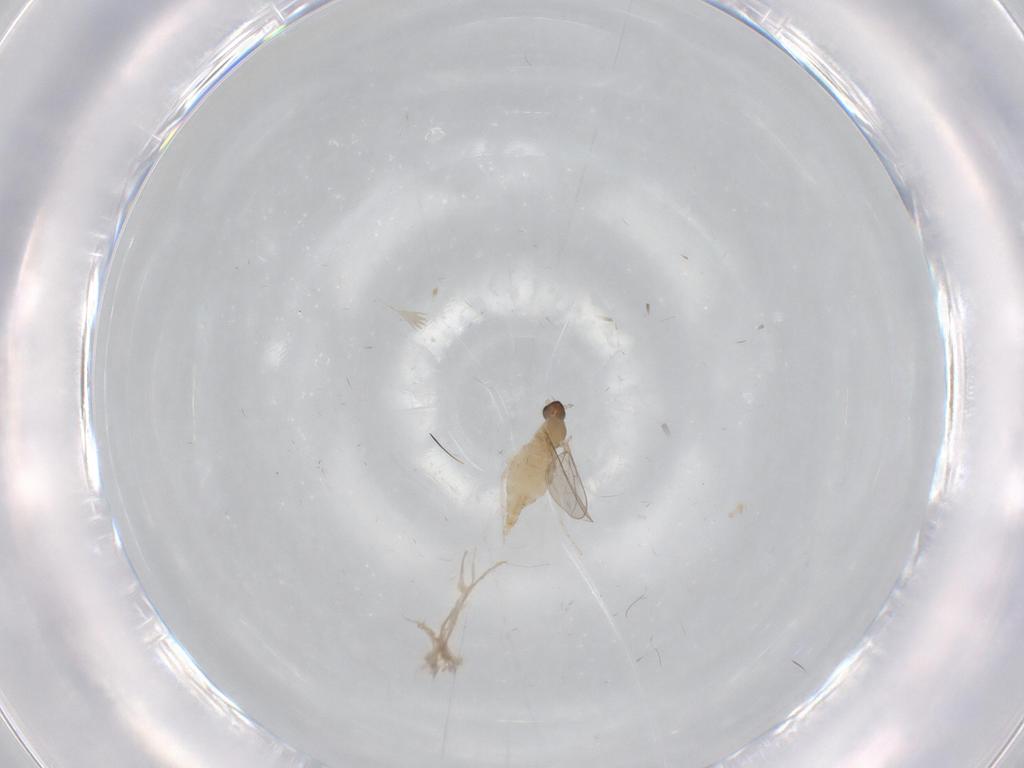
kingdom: Animalia
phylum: Arthropoda
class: Insecta
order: Diptera
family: Cecidomyiidae
